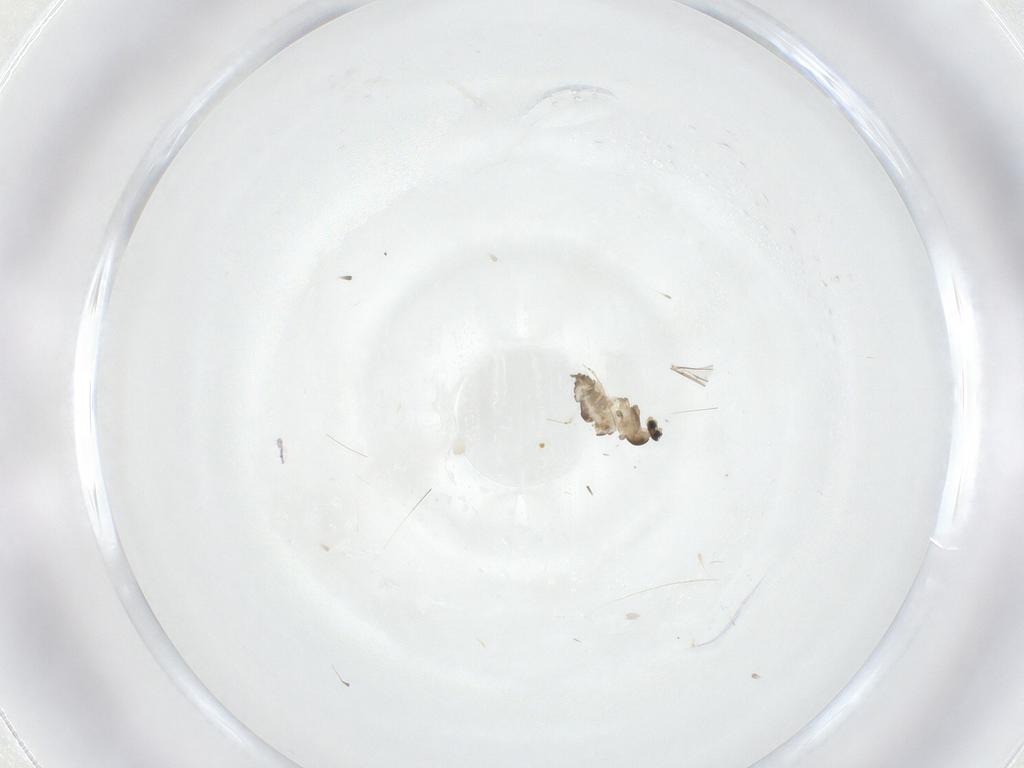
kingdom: Animalia
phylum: Arthropoda
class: Insecta
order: Diptera
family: Cecidomyiidae
